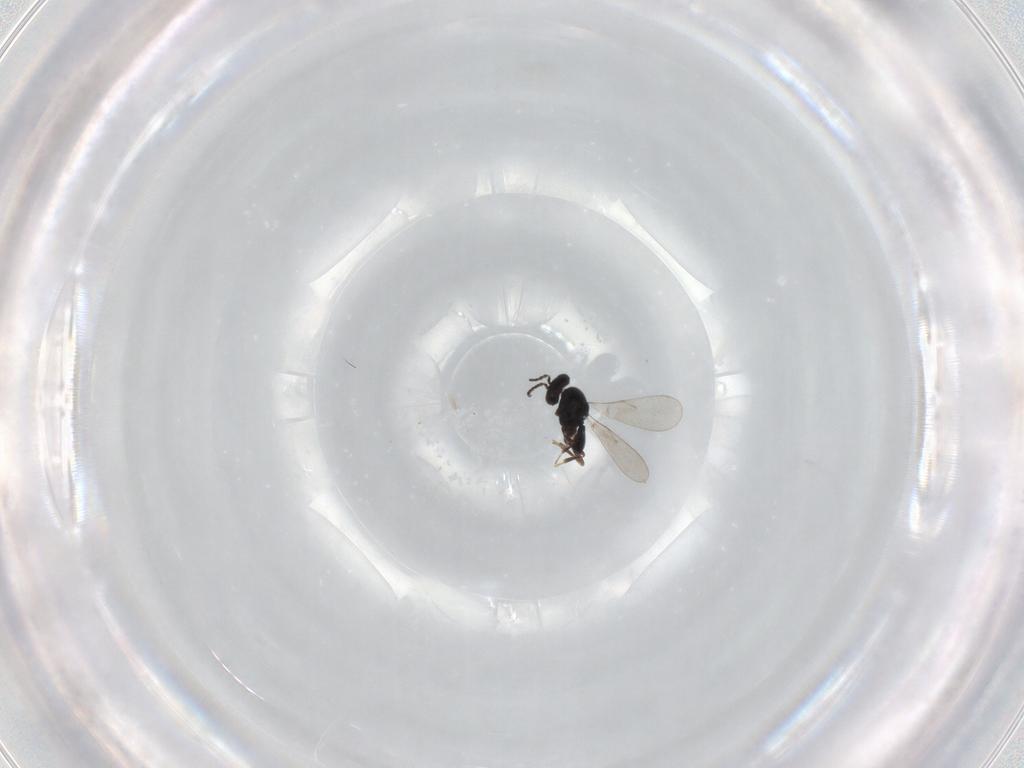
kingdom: Animalia
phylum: Arthropoda
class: Insecta
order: Hymenoptera
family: Scelionidae
